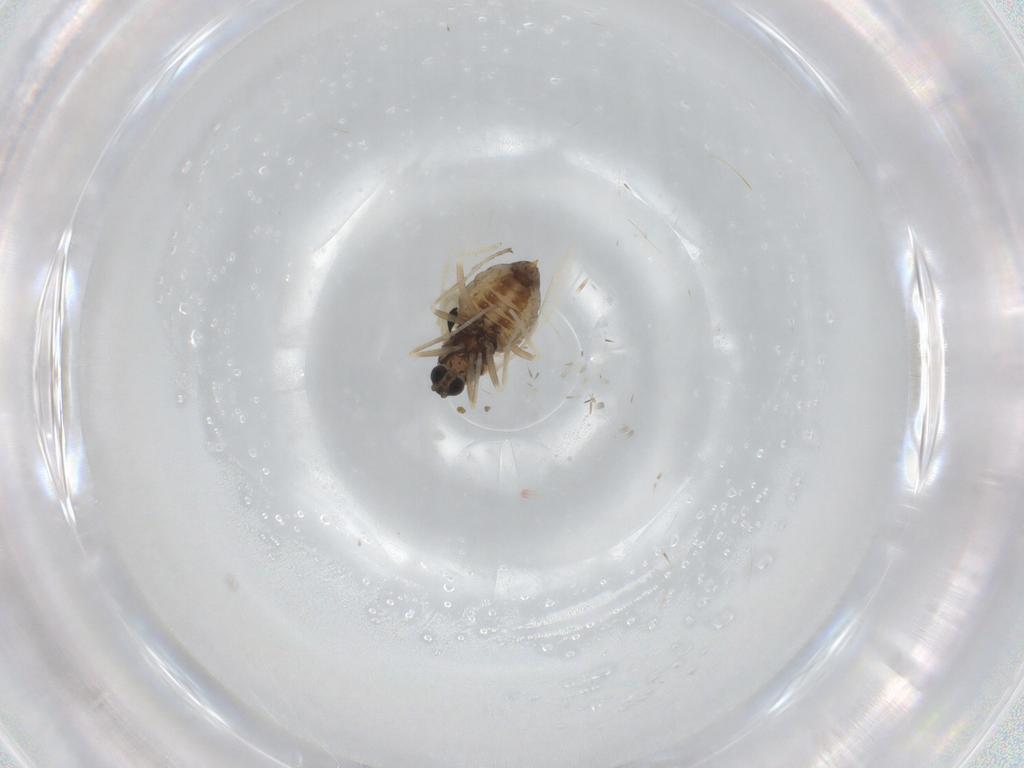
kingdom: Animalia
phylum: Arthropoda
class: Insecta
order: Diptera
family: Cecidomyiidae
